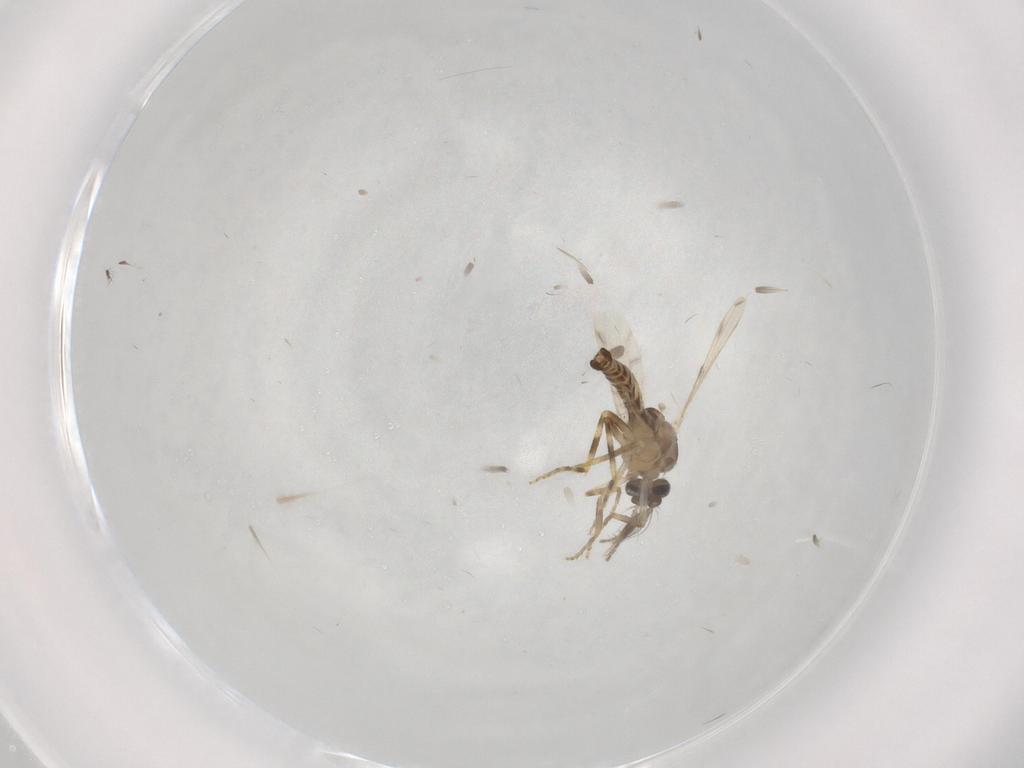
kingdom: Animalia
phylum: Arthropoda
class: Insecta
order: Diptera
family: Ceratopogonidae
